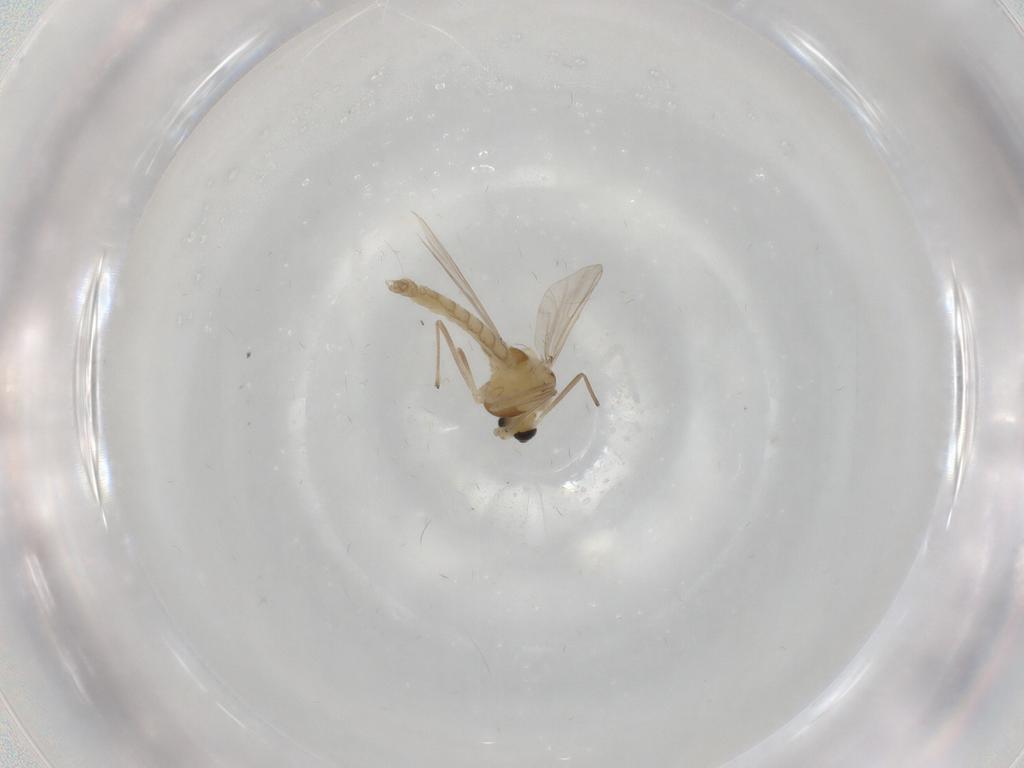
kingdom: Animalia
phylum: Arthropoda
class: Insecta
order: Diptera
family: Chironomidae
